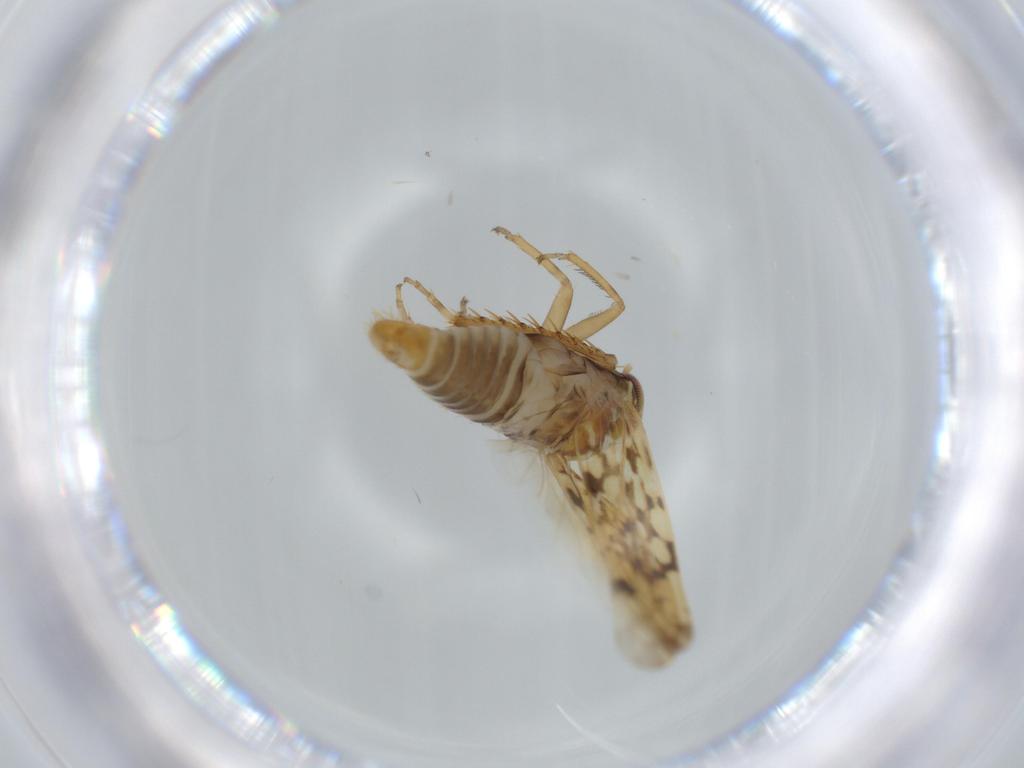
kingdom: Animalia
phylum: Arthropoda
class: Insecta
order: Hemiptera
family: Cicadellidae
